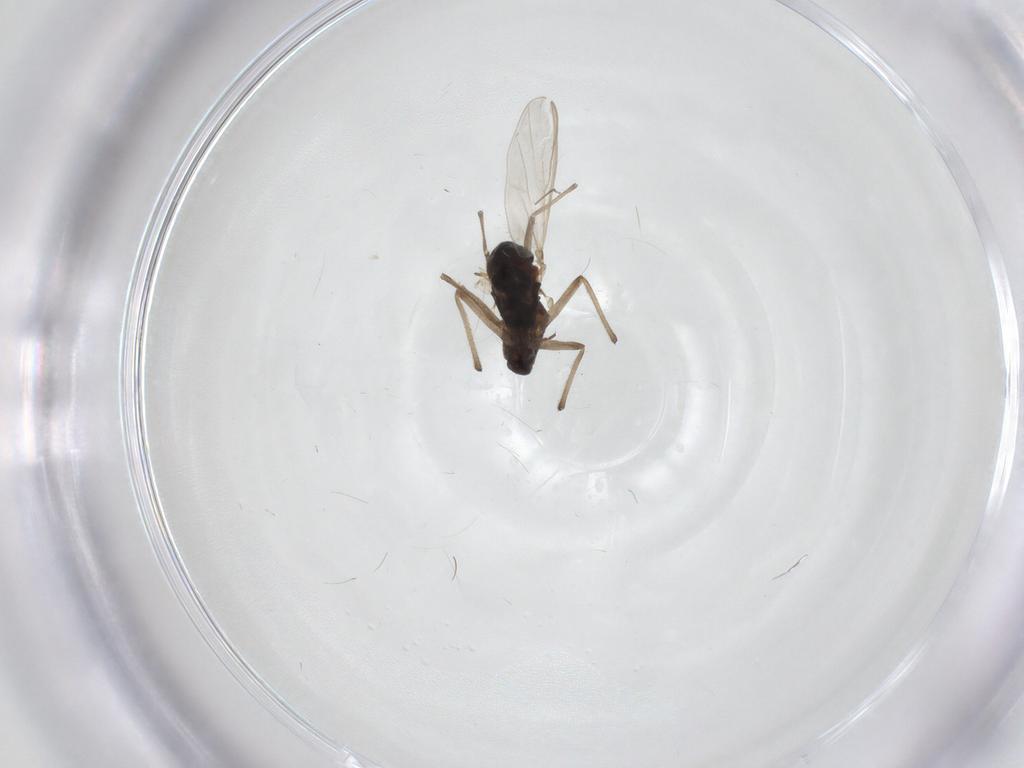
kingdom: Animalia
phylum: Arthropoda
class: Insecta
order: Diptera
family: Chironomidae
